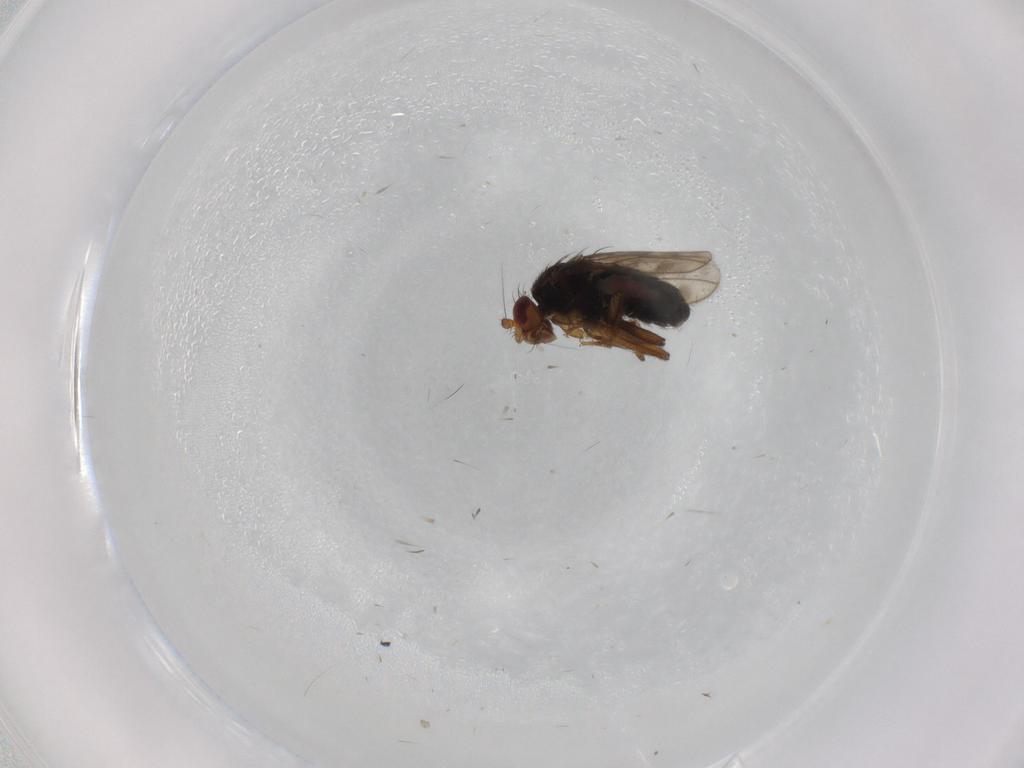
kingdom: Animalia
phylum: Arthropoda
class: Insecta
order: Diptera
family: Sphaeroceridae
